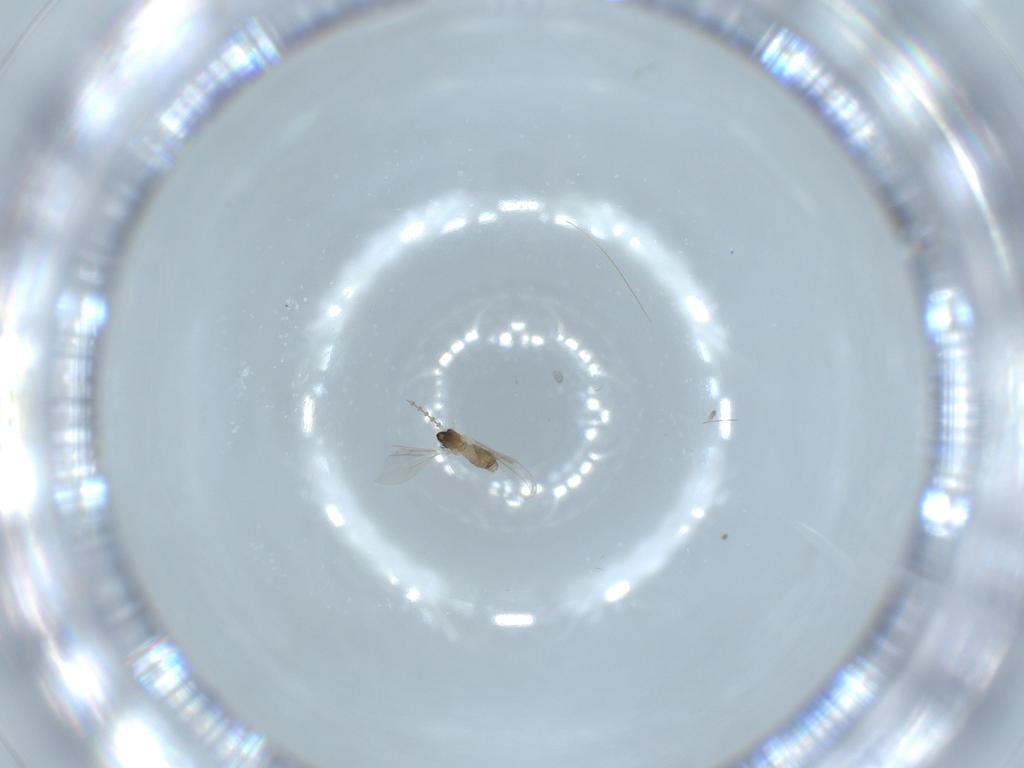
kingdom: Animalia
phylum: Arthropoda
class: Insecta
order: Diptera
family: Cecidomyiidae
